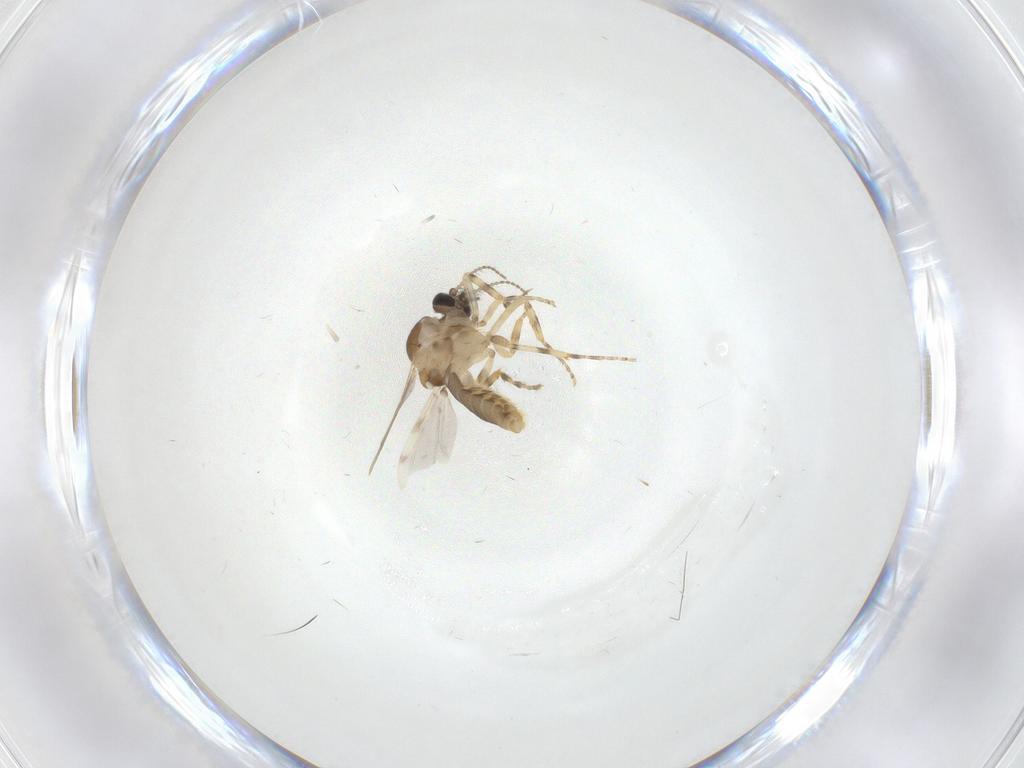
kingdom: Animalia
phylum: Arthropoda
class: Insecta
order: Diptera
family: Ceratopogonidae
